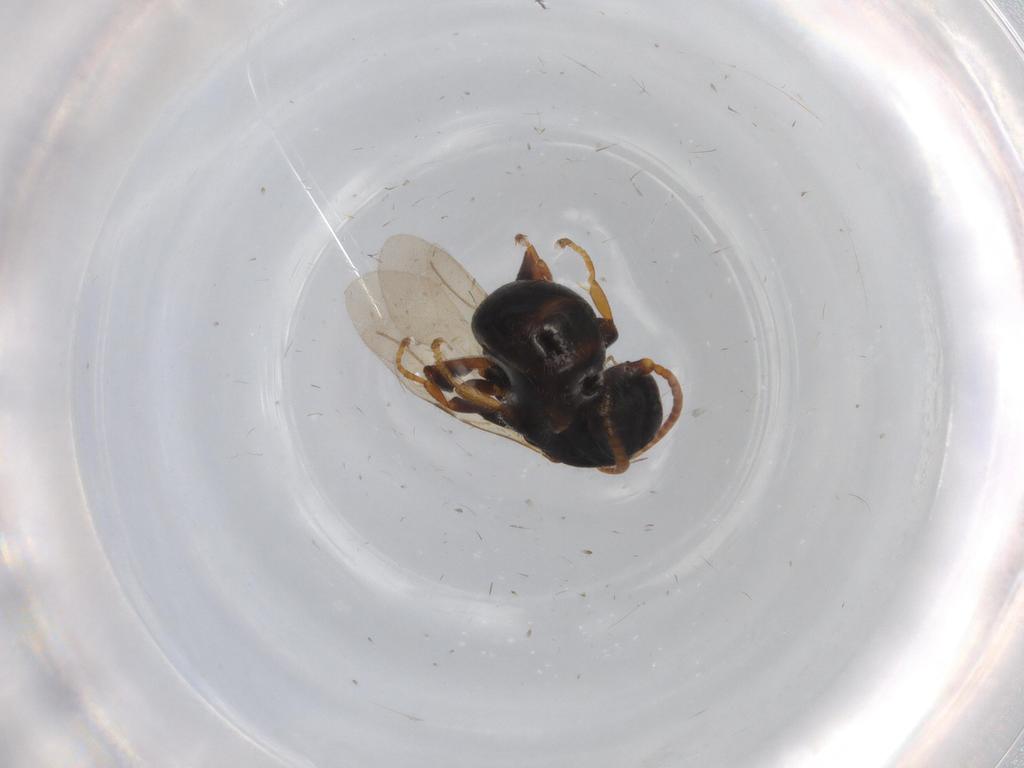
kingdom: Animalia
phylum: Arthropoda
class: Insecta
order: Hymenoptera
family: Bethylidae
